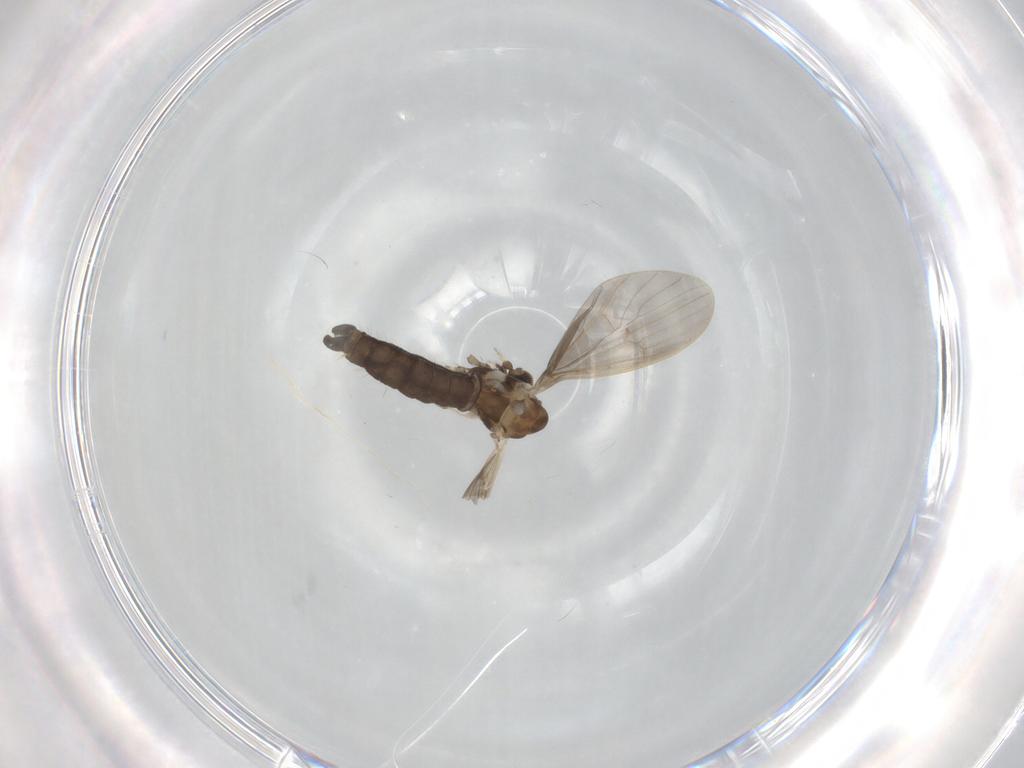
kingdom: Animalia
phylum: Arthropoda
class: Insecta
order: Diptera
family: Limoniidae
